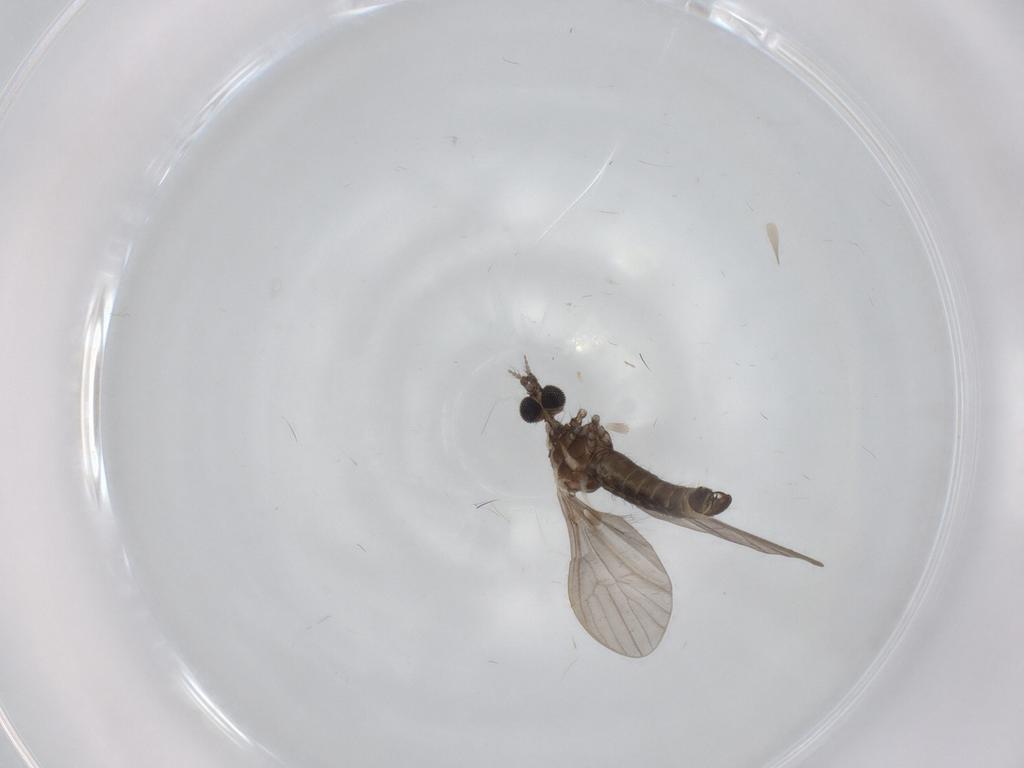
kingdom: Animalia
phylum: Arthropoda
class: Insecta
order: Diptera
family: Limoniidae
